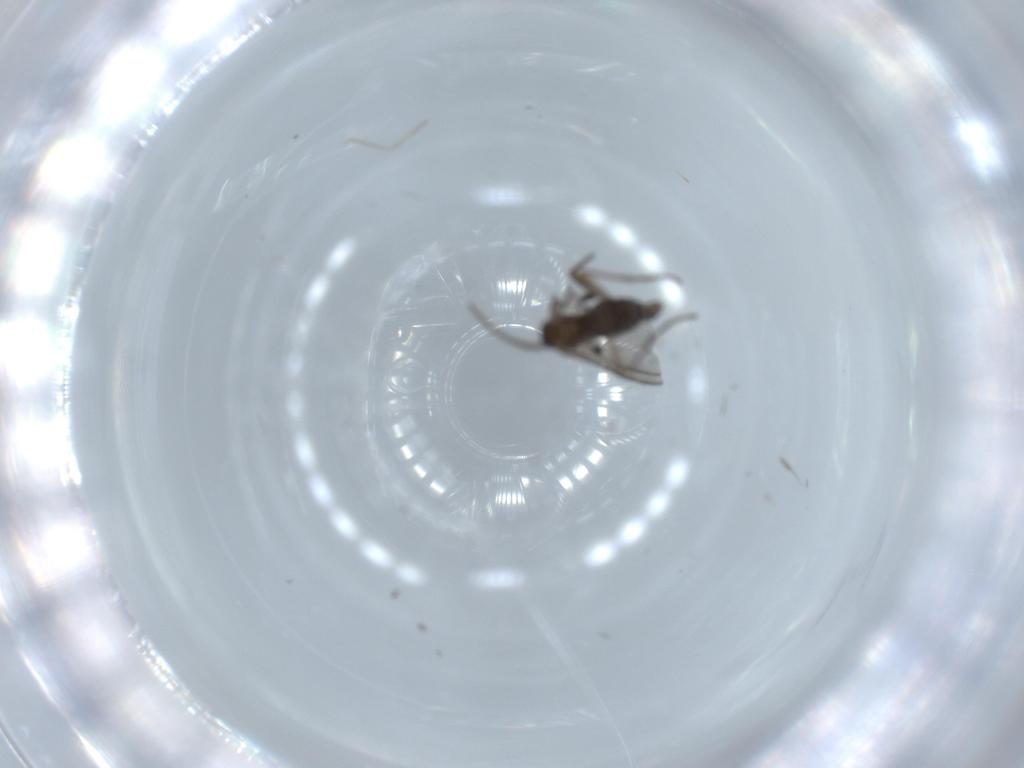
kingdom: Animalia
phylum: Arthropoda
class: Insecta
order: Diptera
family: Sciaridae
